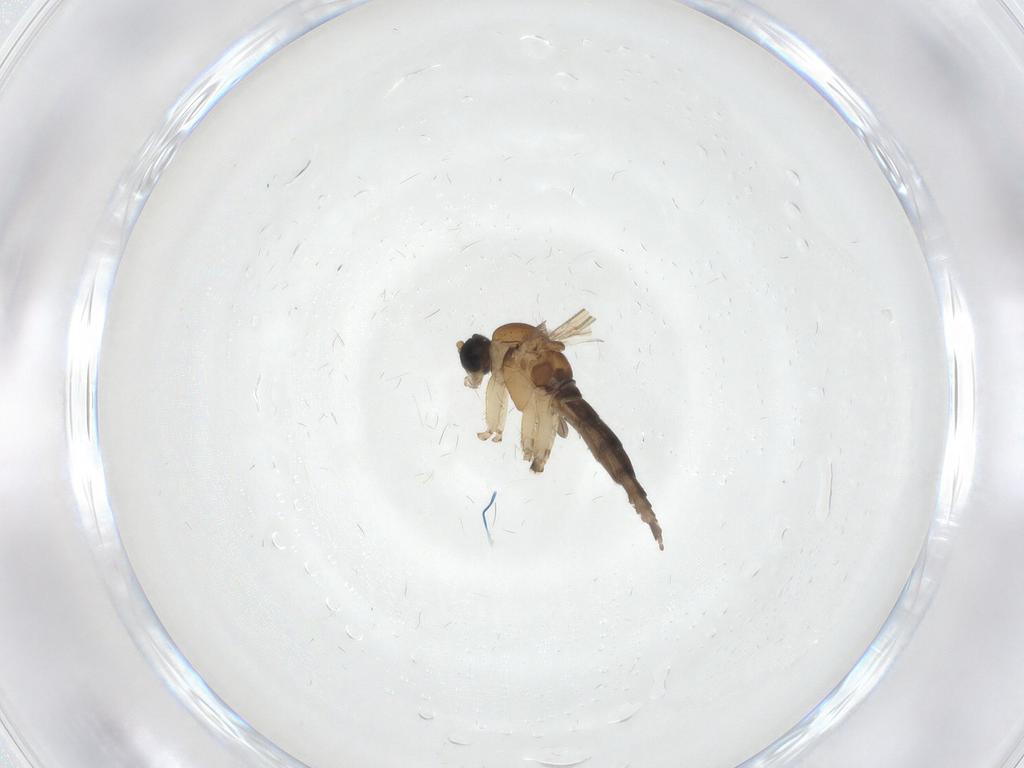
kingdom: Animalia
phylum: Arthropoda
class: Insecta
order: Diptera
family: Sciaridae
